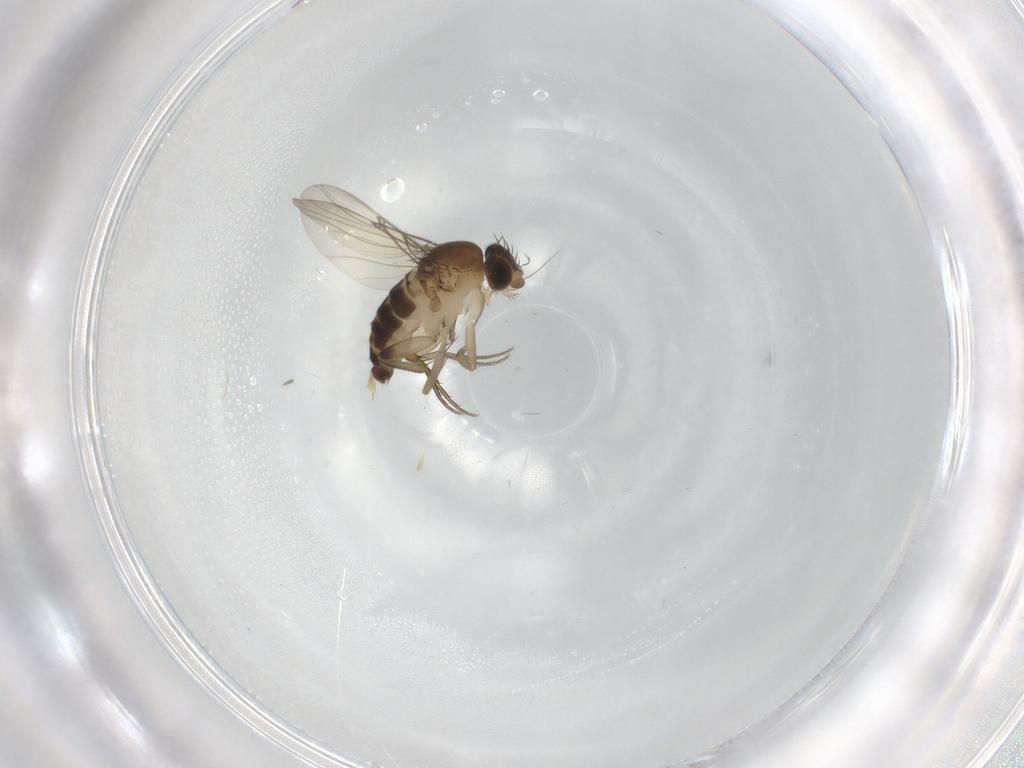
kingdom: Animalia
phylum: Arthropoda
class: Insecta
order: Diptera
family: Phoridae
